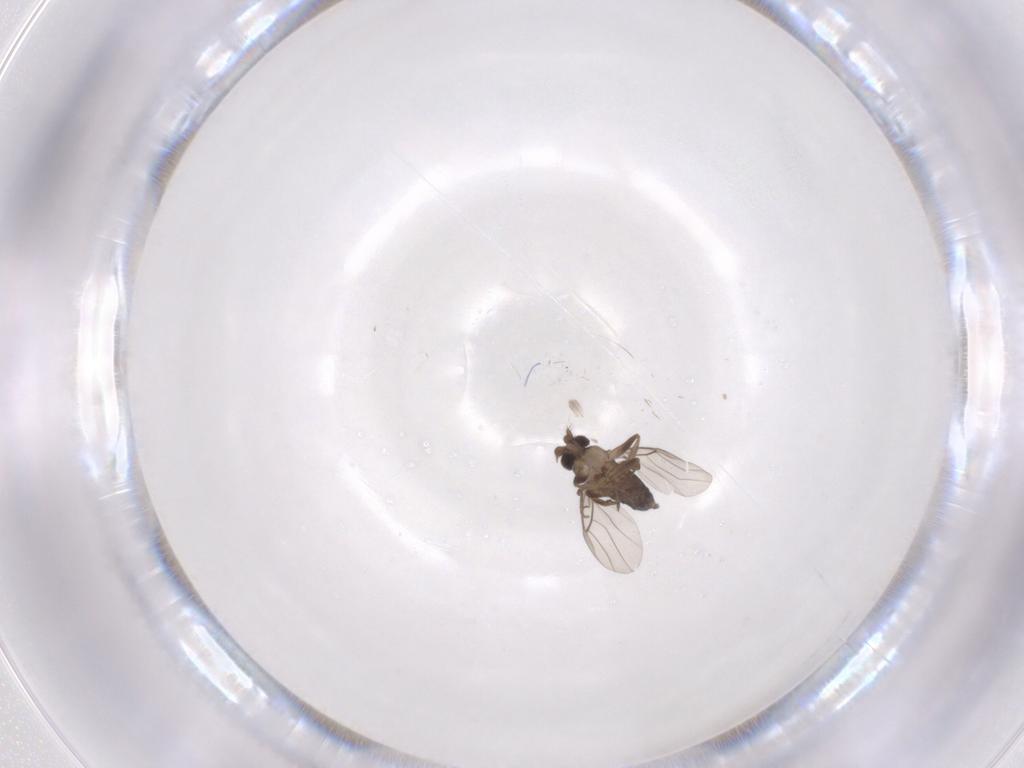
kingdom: Animalia
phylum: Arthropoda
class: Insecta
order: Diptera
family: Phoridae
